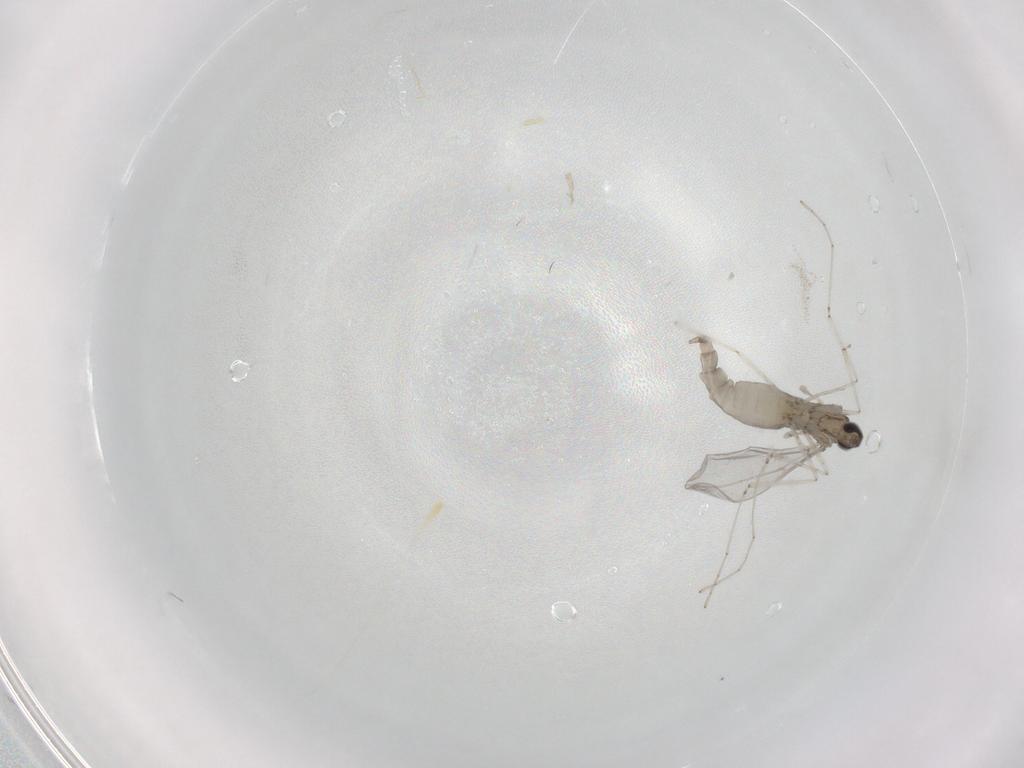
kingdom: Animalia
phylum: Arthropoda
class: Insecta
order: Diptera
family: Cecidomyiidae
